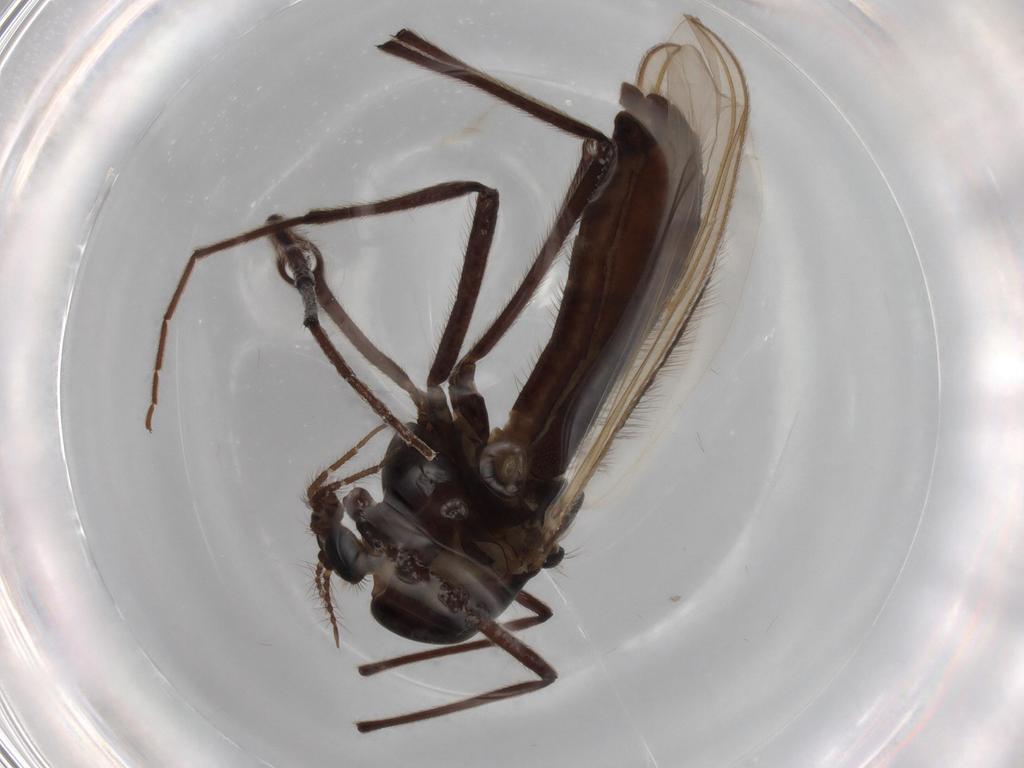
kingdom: Animalia
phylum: Arthropoda
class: Insecta
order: Diptera
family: Chironomidae
